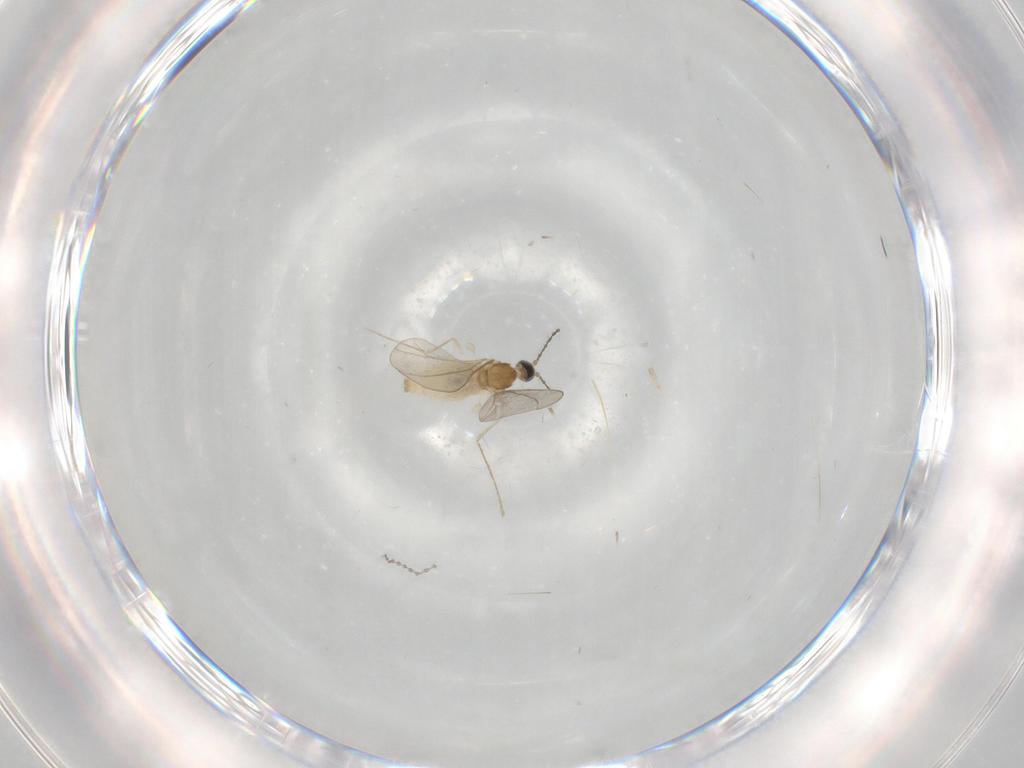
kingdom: Animalia
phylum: Arthropoda
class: Insecta
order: Diptera
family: Cecidomyiidae
